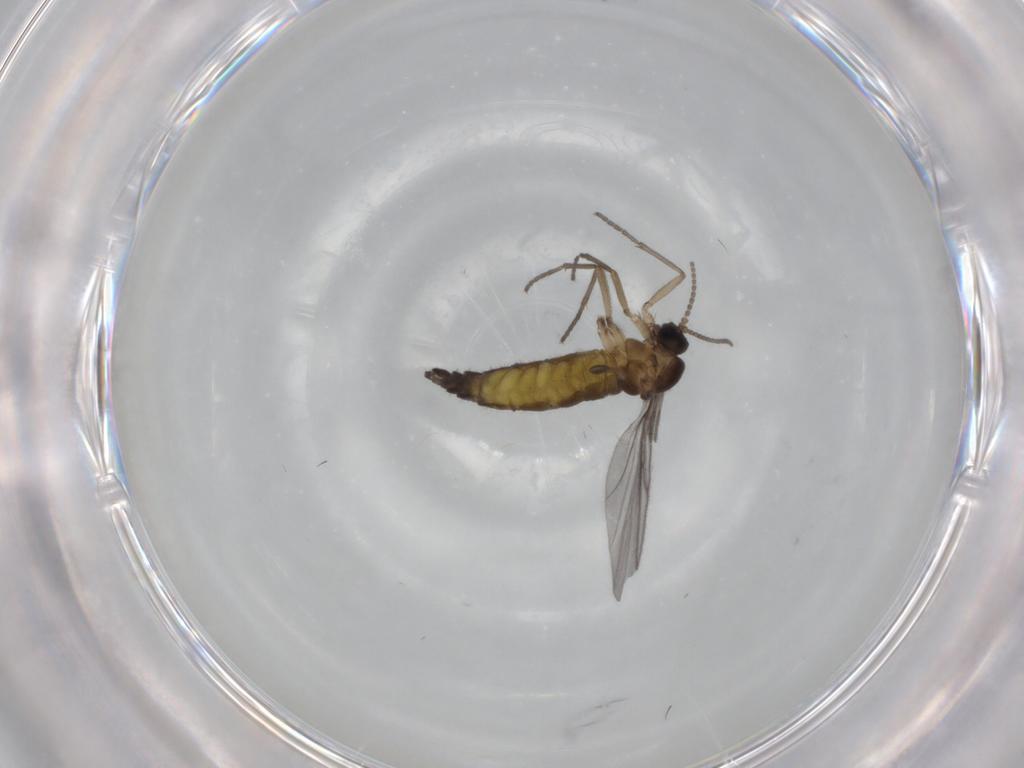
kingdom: Animalia
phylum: Arthropoda
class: Insecta
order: Diptera
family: Sciaridae
